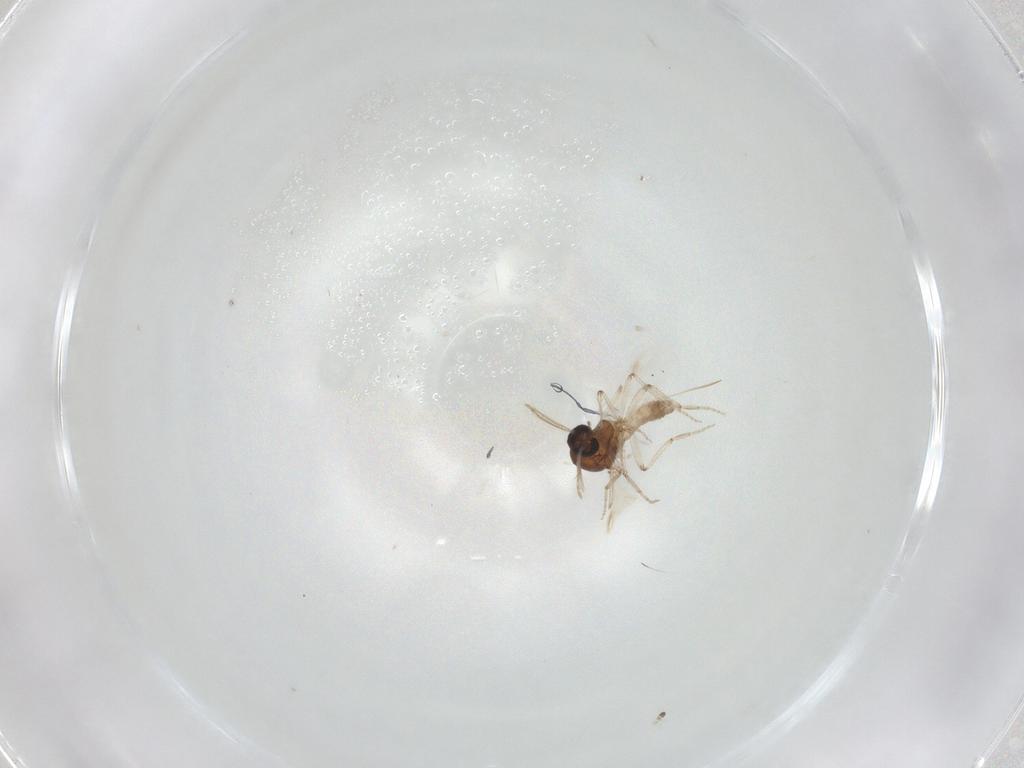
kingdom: Animalia
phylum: Arthropoda
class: Insecta
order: Diptera
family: Ceratopogonidae
